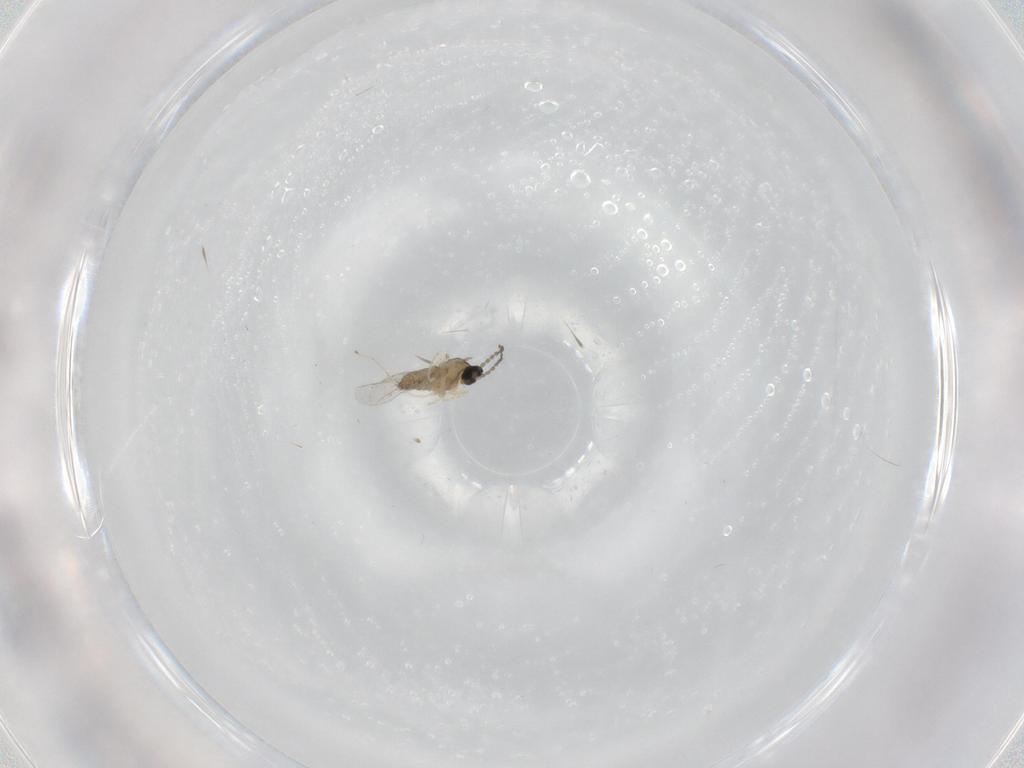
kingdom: Animalia
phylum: Arthropoda
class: Insecta
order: Diptera
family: Cecidomyiidae
